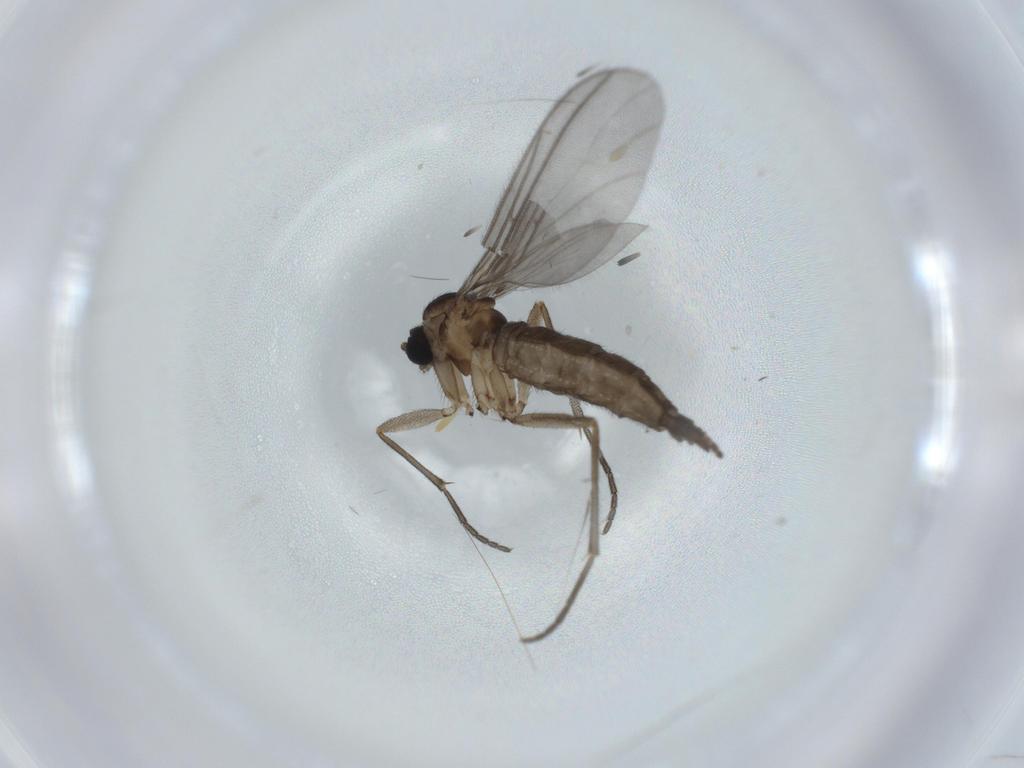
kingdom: Animalia
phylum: Arthropoda
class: Insecta
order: Diptera
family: Sciaridae
